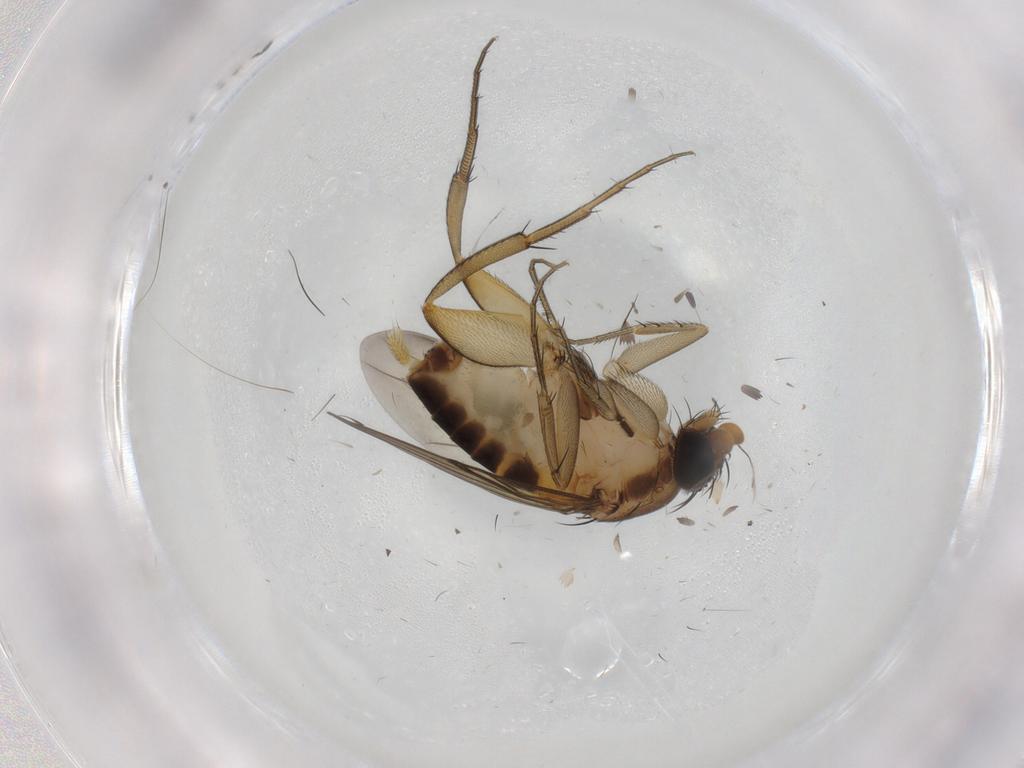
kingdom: Animalia
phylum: Arthropoda
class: Insecta
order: Diptera
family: Phoridae
